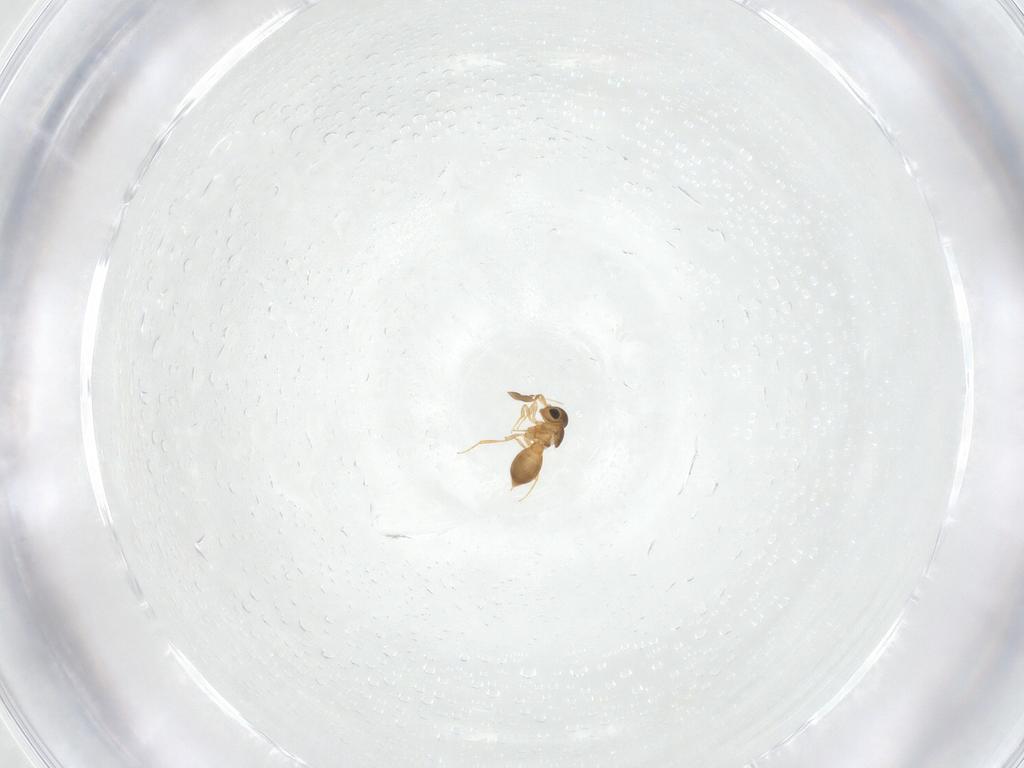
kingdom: Animalia
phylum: Arthropoda
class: Insecta
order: Hymenoptera
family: Scelionidae
